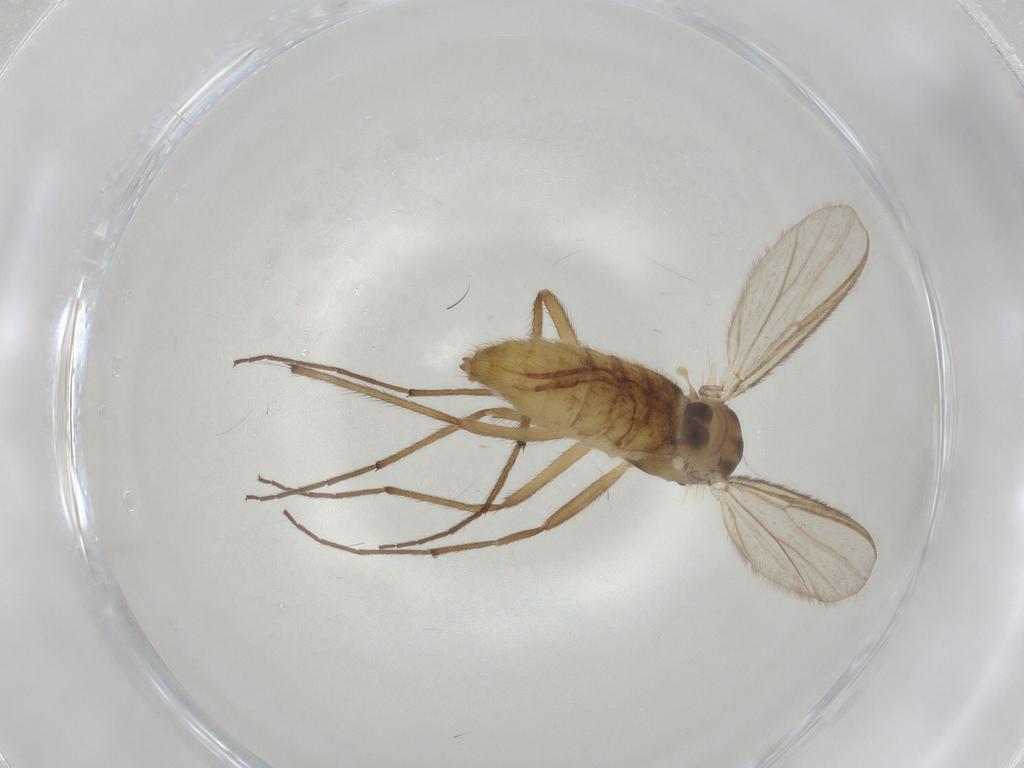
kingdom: Animalia
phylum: Arthropoda
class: Insecta
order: Diptera
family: Chironomidae
